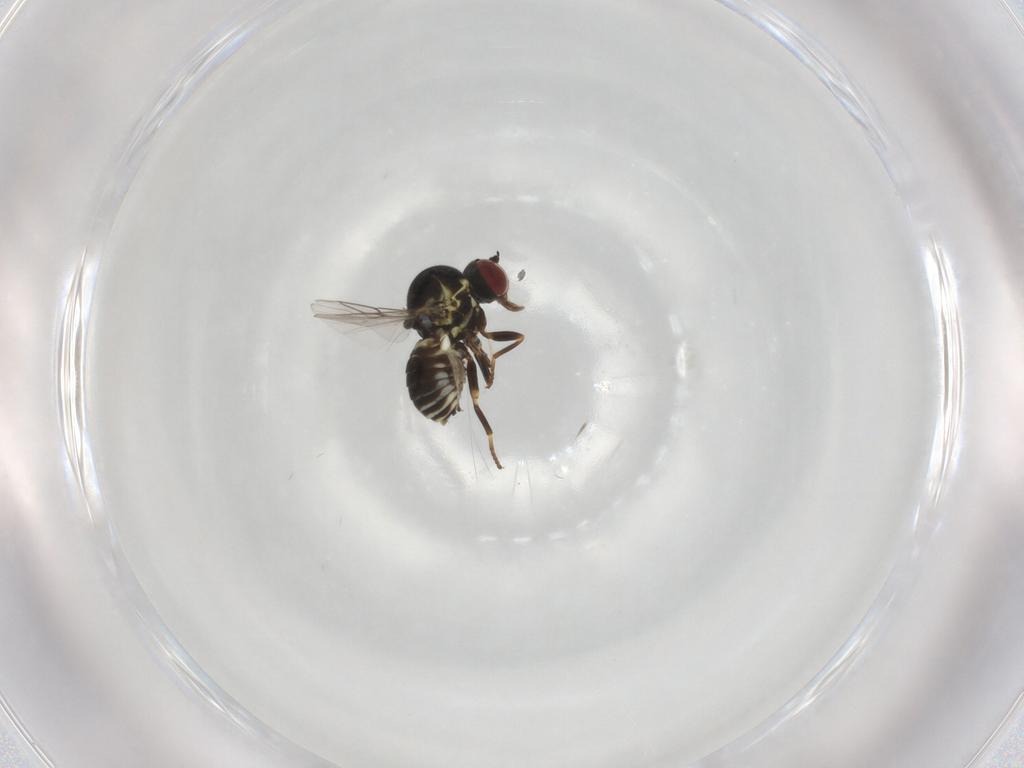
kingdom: Animalia
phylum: Arthropoda
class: Insecta
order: Diptera
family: Mythicomyiidae
